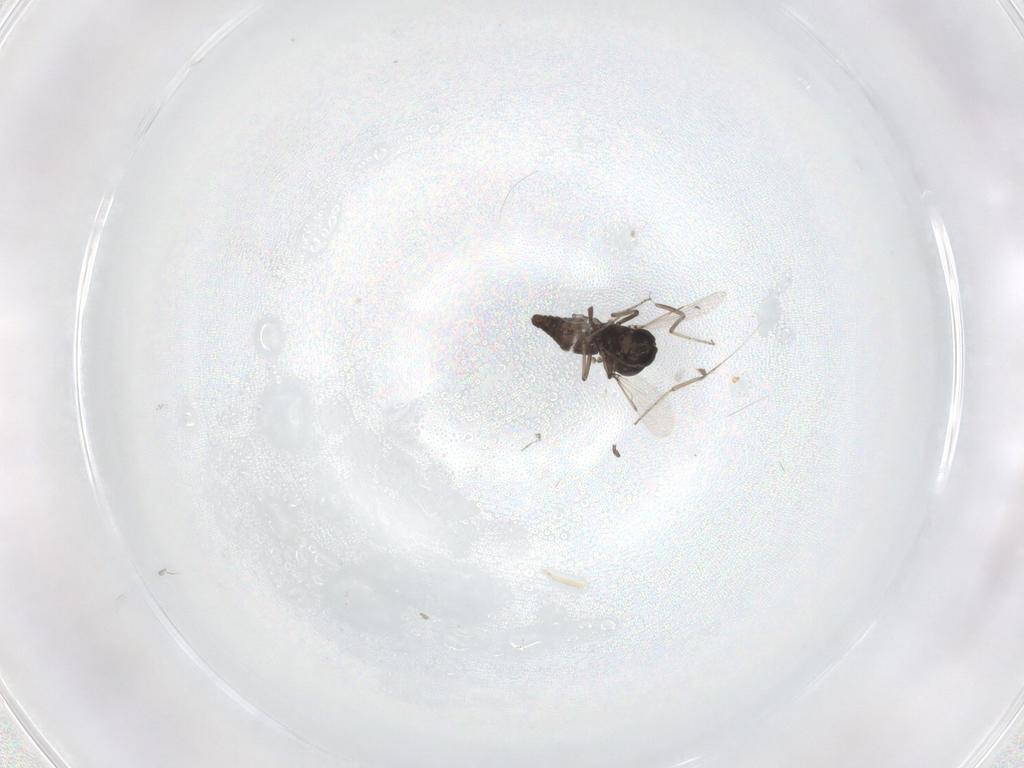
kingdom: Animalia
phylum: Arthropoda
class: Insecta
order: Diptera
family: Ceratopogonidae
